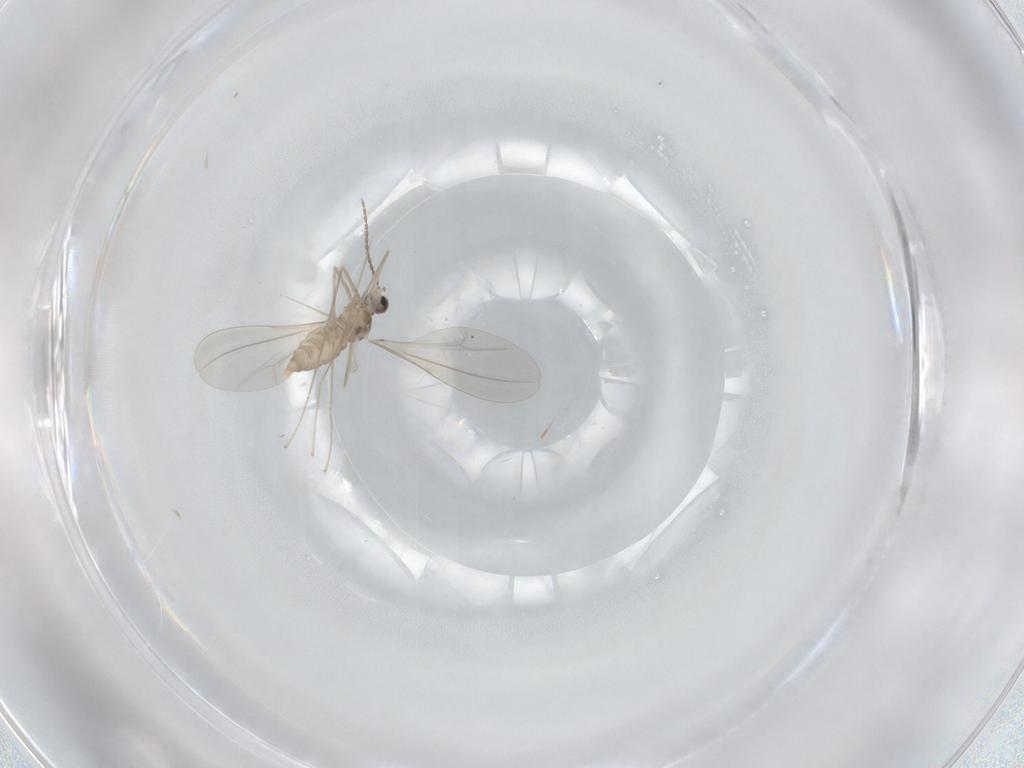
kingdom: Animalia
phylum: Arthropoda
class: Insecta
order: Diptera
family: Cecidomyiidae
